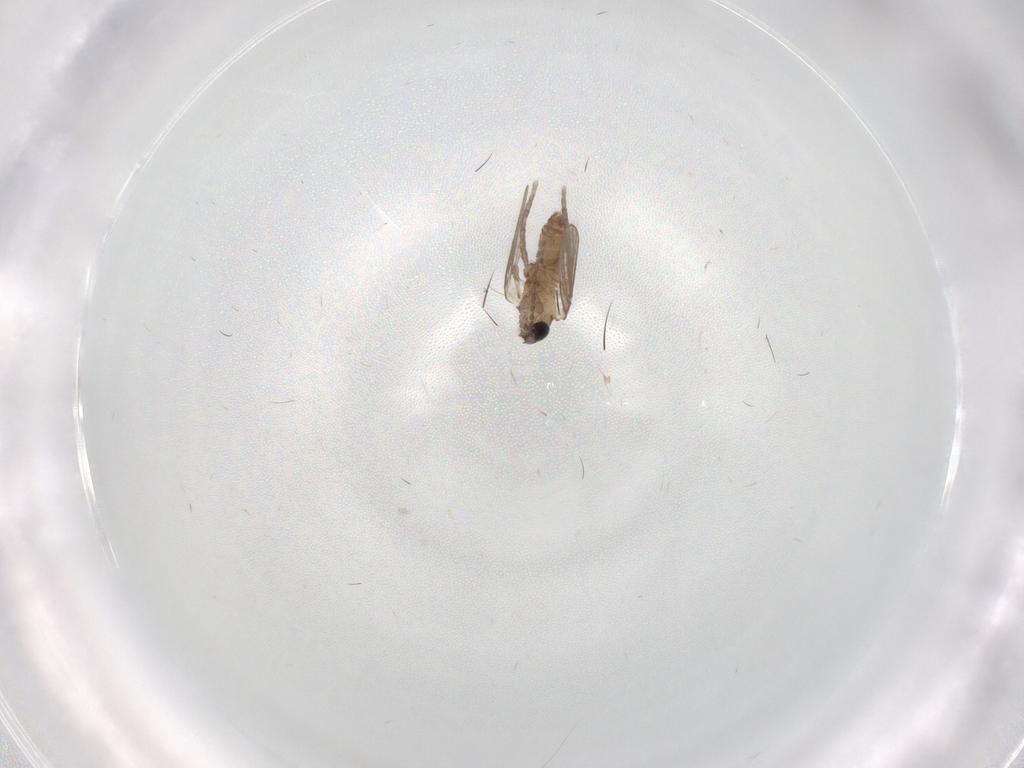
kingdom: Animalia
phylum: Arthropoda
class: Insecta
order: Diptera
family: Psychodidae
